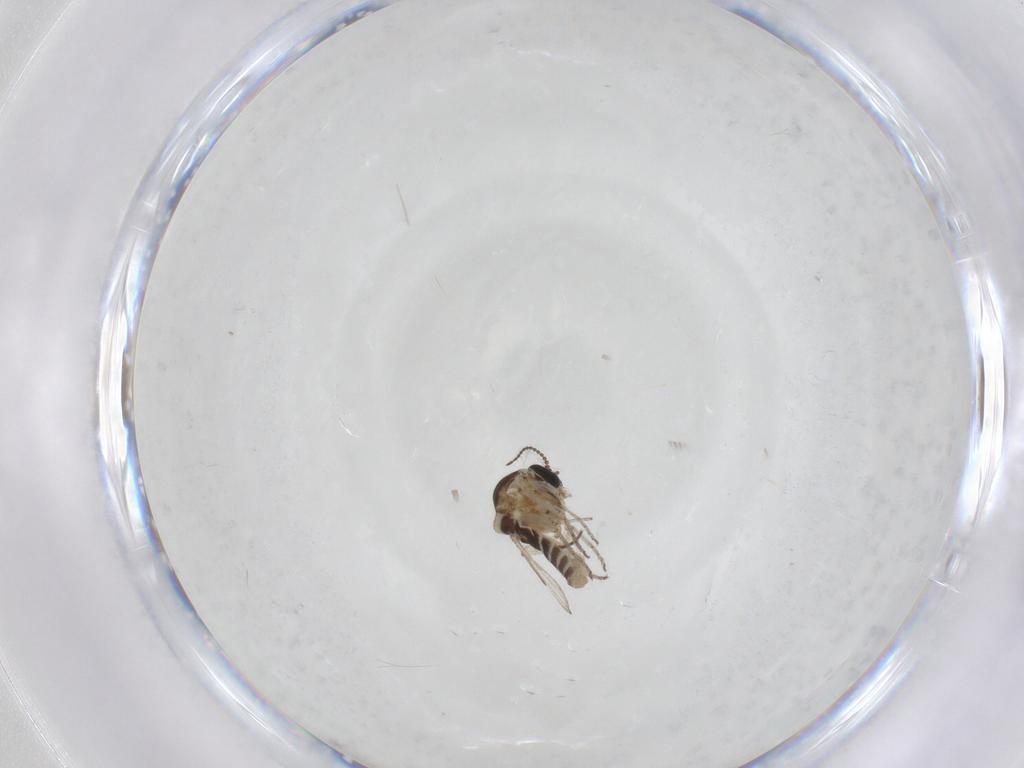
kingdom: Animalia
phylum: Arthropoda
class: Insecta
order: Diptera
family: Ceratopogonidae
